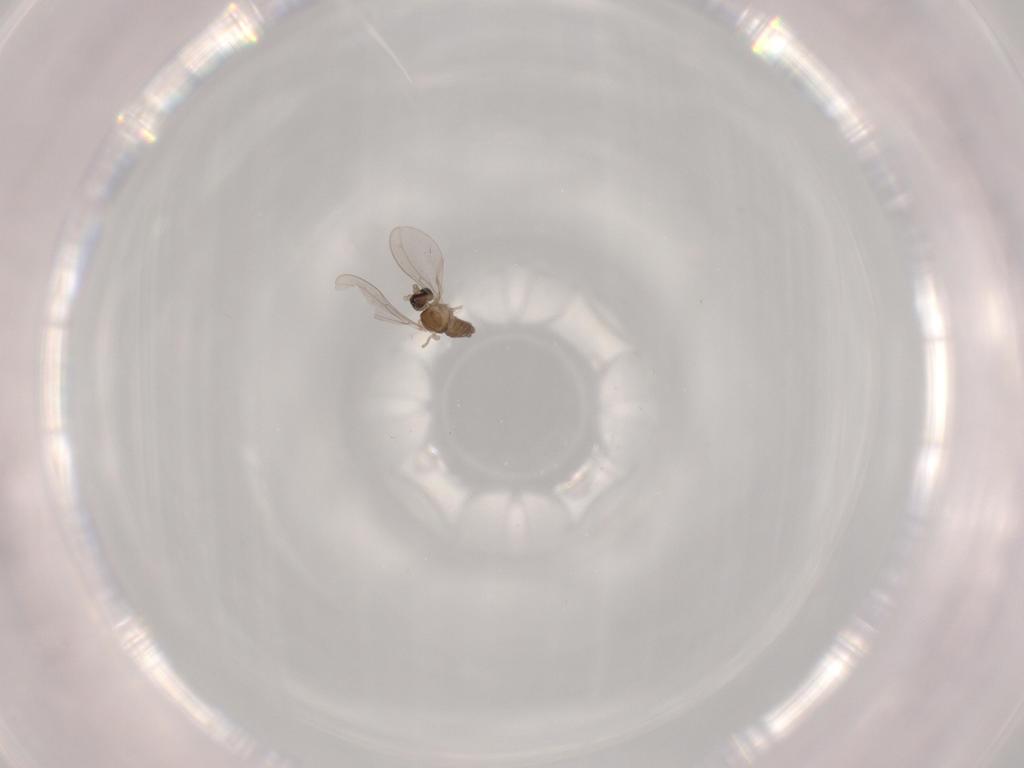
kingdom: Animalia
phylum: Arthropoda
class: Insecta
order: Diptera
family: Cecidomyiidae
